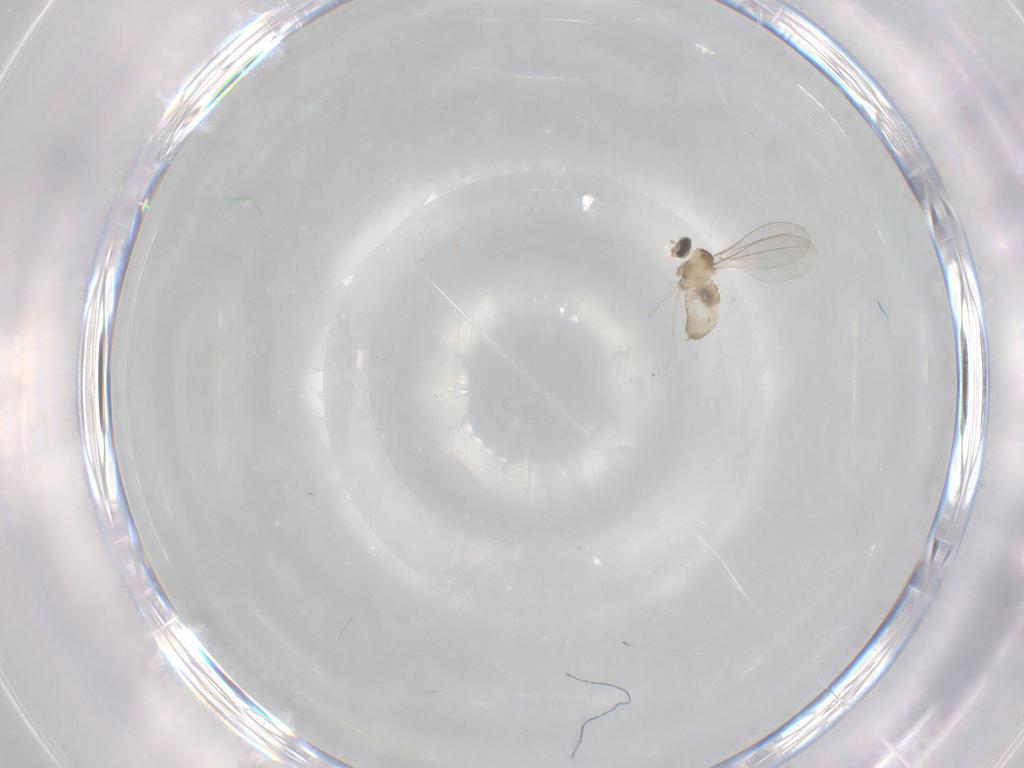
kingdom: Animalia
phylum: Arthropoda
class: Insecta
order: Diptera
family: Cecidomyiidae
